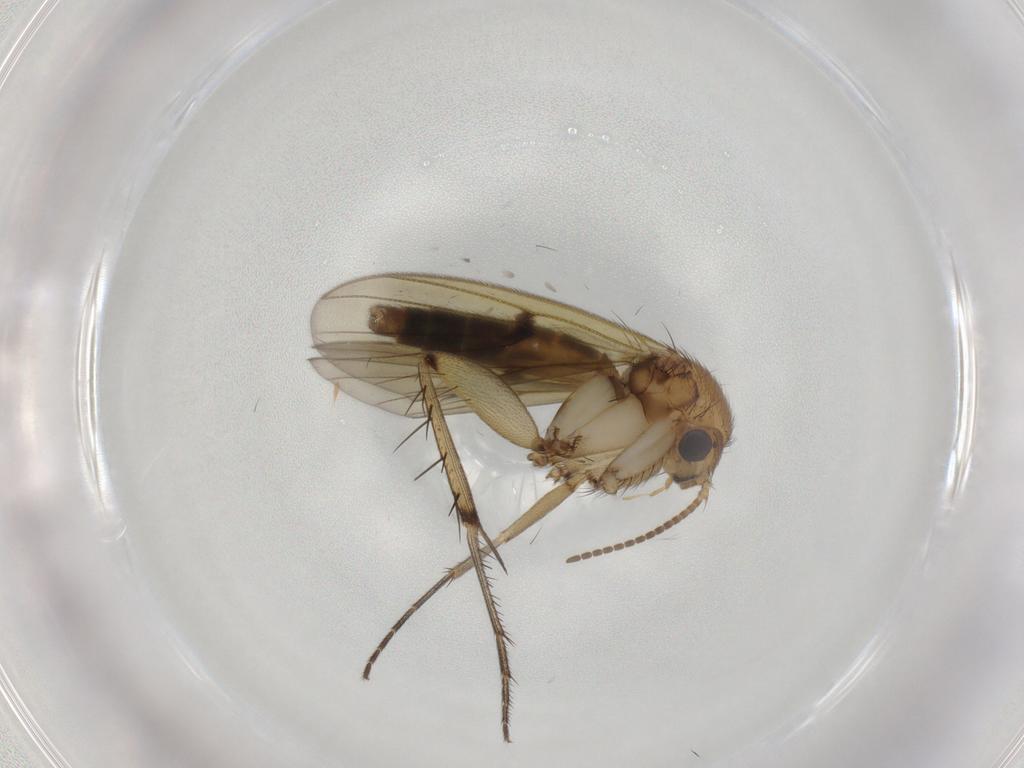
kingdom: Animalia
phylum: Arthropoda
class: Insecta
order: Diptera
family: Mycetophilidae
